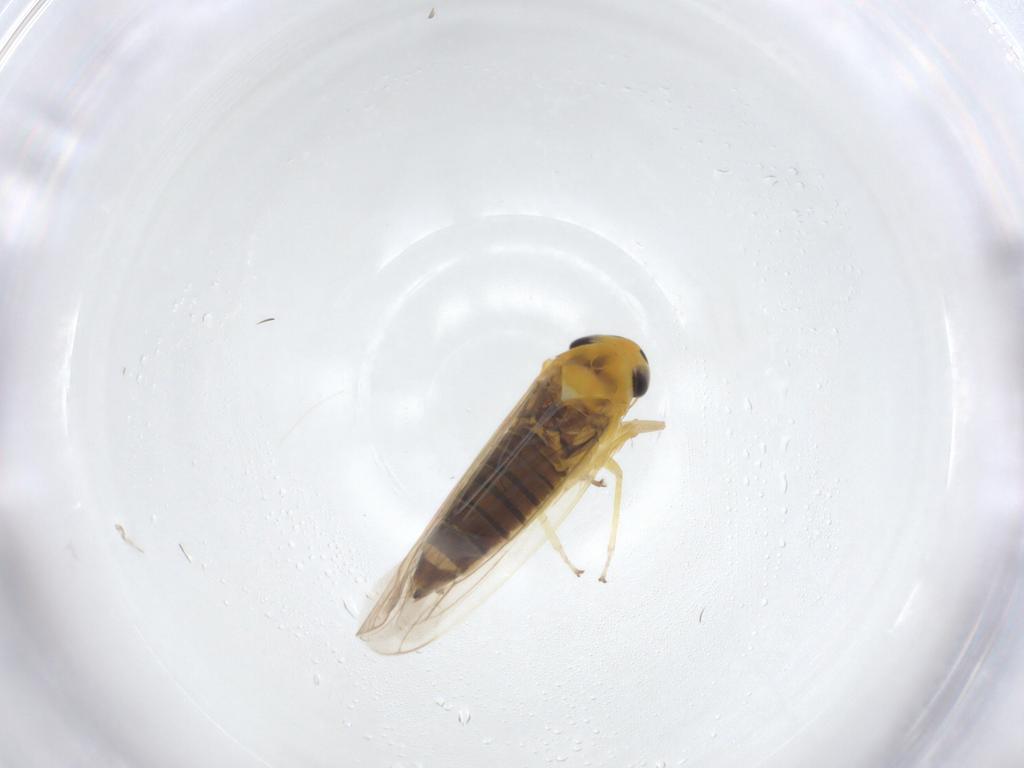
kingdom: Animalia
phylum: Arthropoda
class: Insecta
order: Hemiptera
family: Cicadellidae
